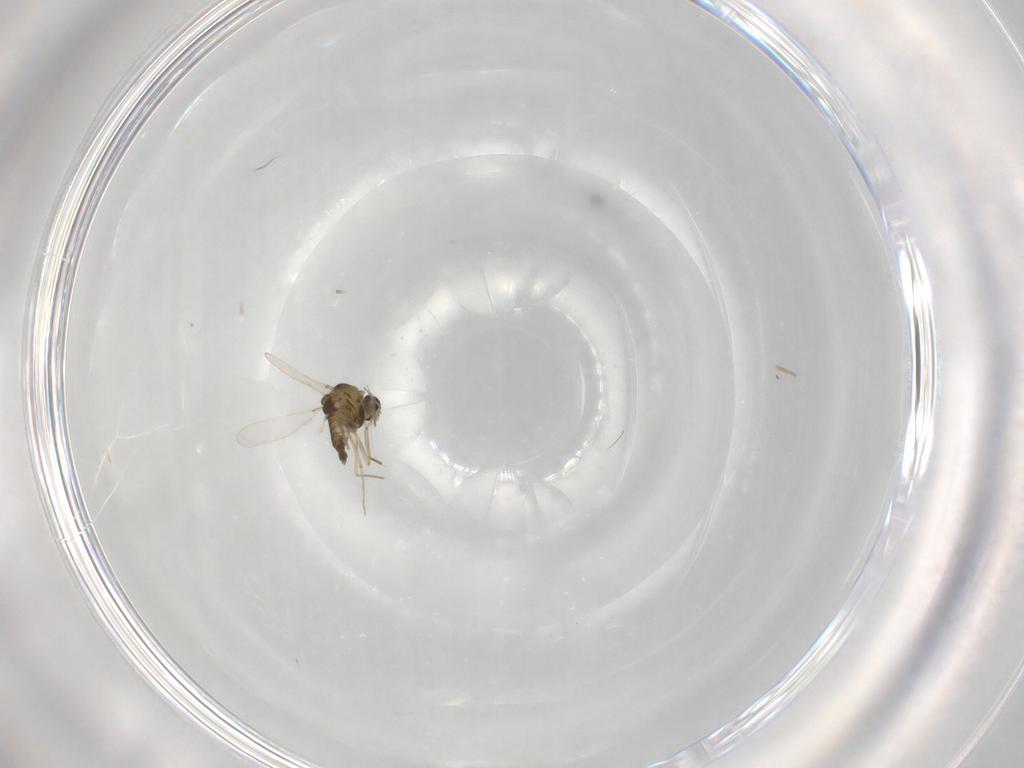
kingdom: Animalia
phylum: Arthropoda
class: Insecta
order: Diptera
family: Chironomidae
